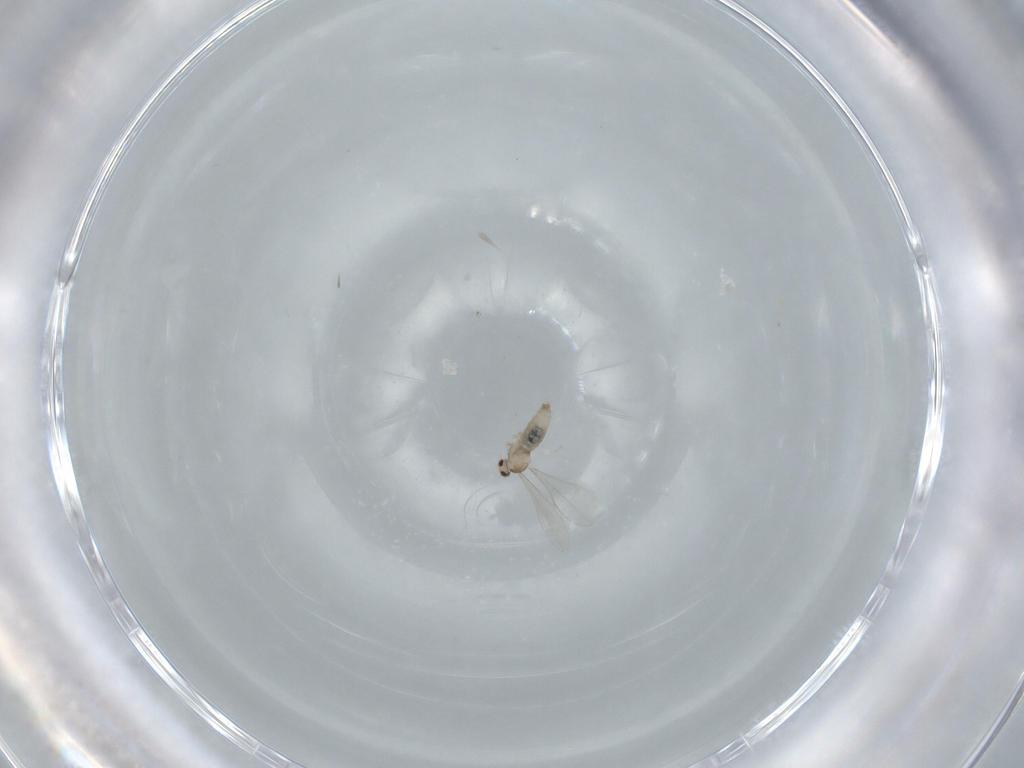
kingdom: Animalia
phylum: Arthropoda
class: Insecta
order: Diptera
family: Cecidomyiidae
